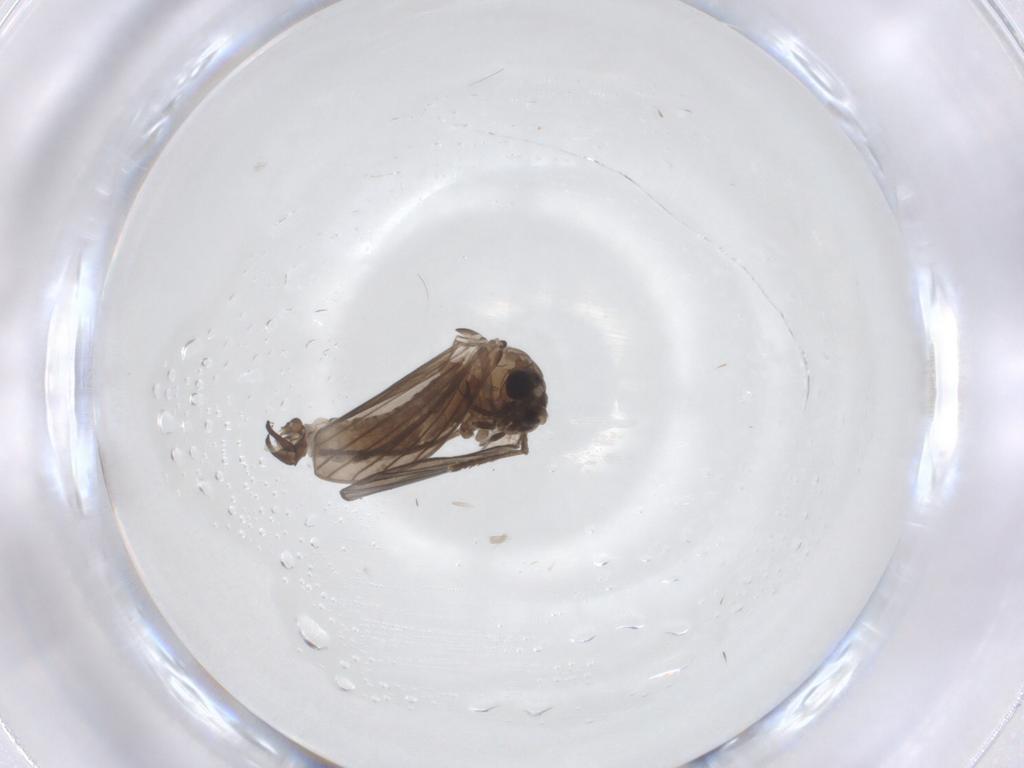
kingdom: Animalia
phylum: Arthropoda
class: Insecta
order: Diptera
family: Psychodidae
